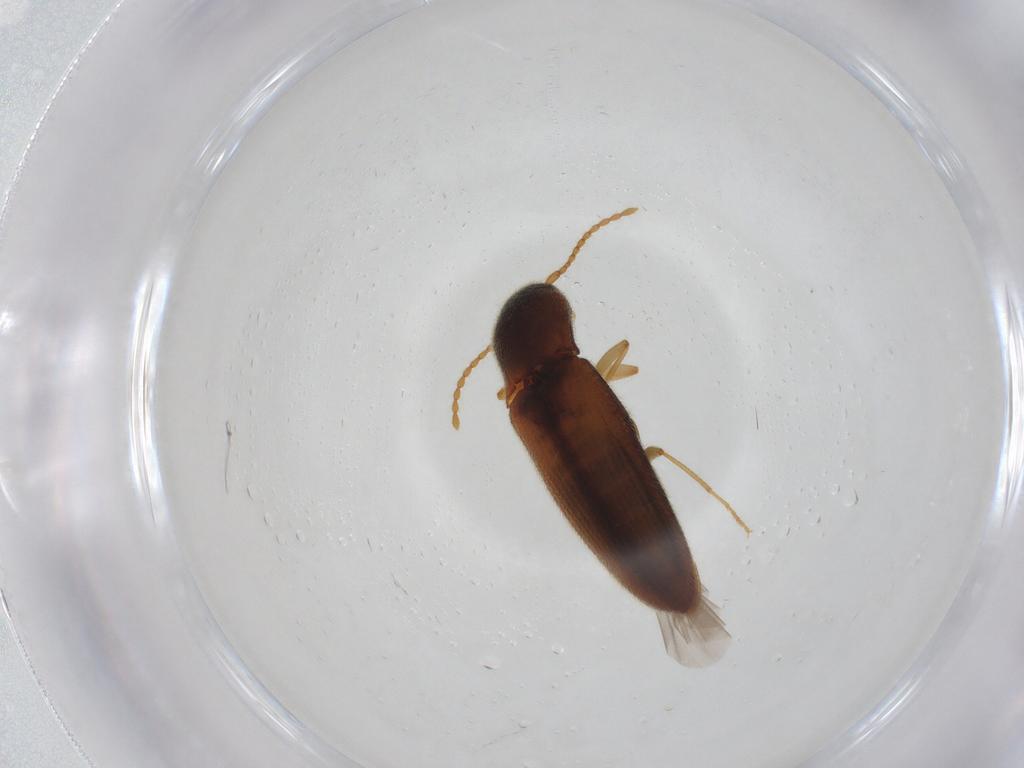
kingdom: Animalia
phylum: Arthropoda
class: Insecta
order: Coleoptera
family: Elateridae
